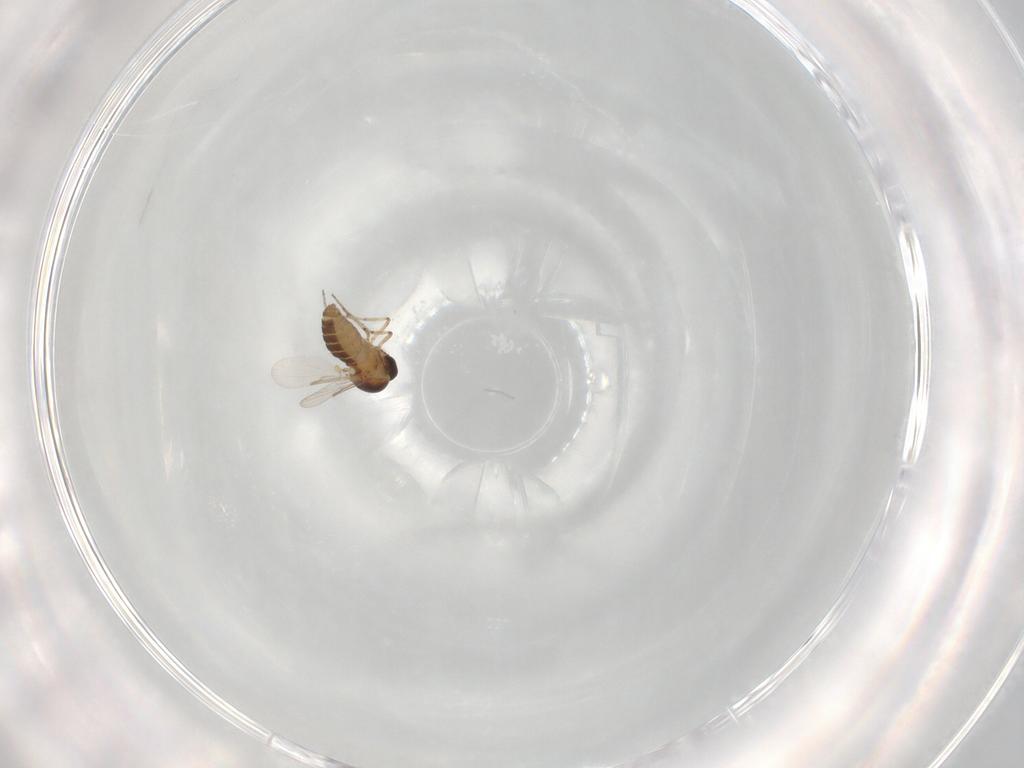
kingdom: Animalia
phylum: Arthropoda
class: Insecta
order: Diptera
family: Ceratopogonidae
